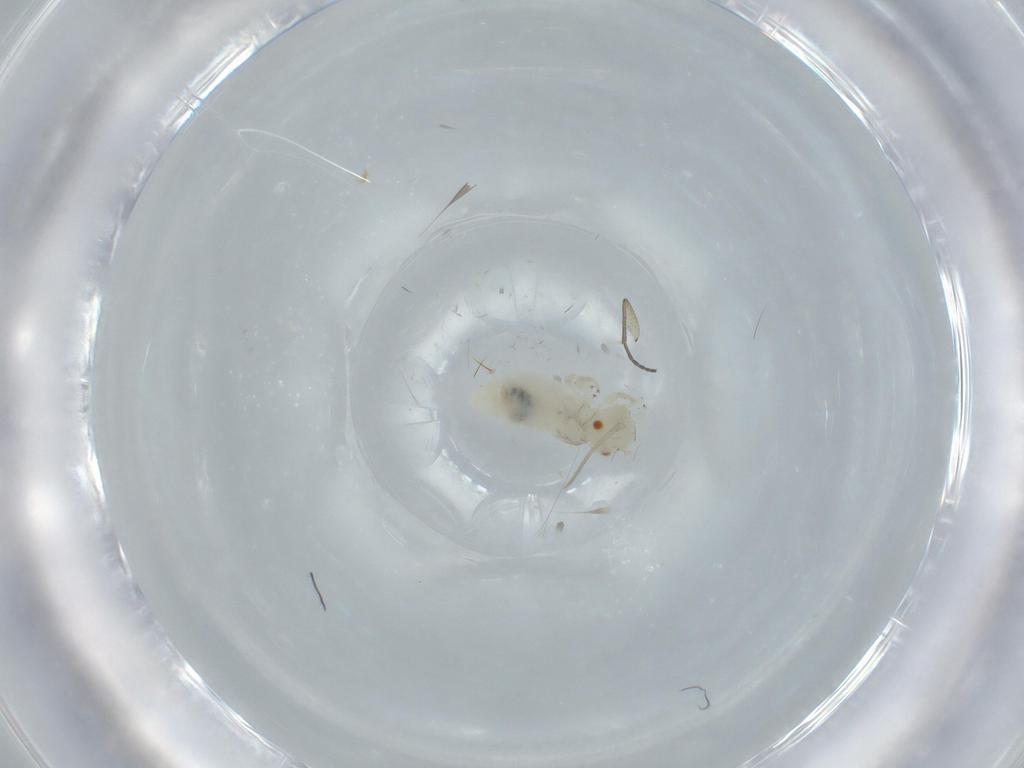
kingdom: Animalia
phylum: Arthropoda
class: Insecta
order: Psocodea
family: Caeciliusidae
